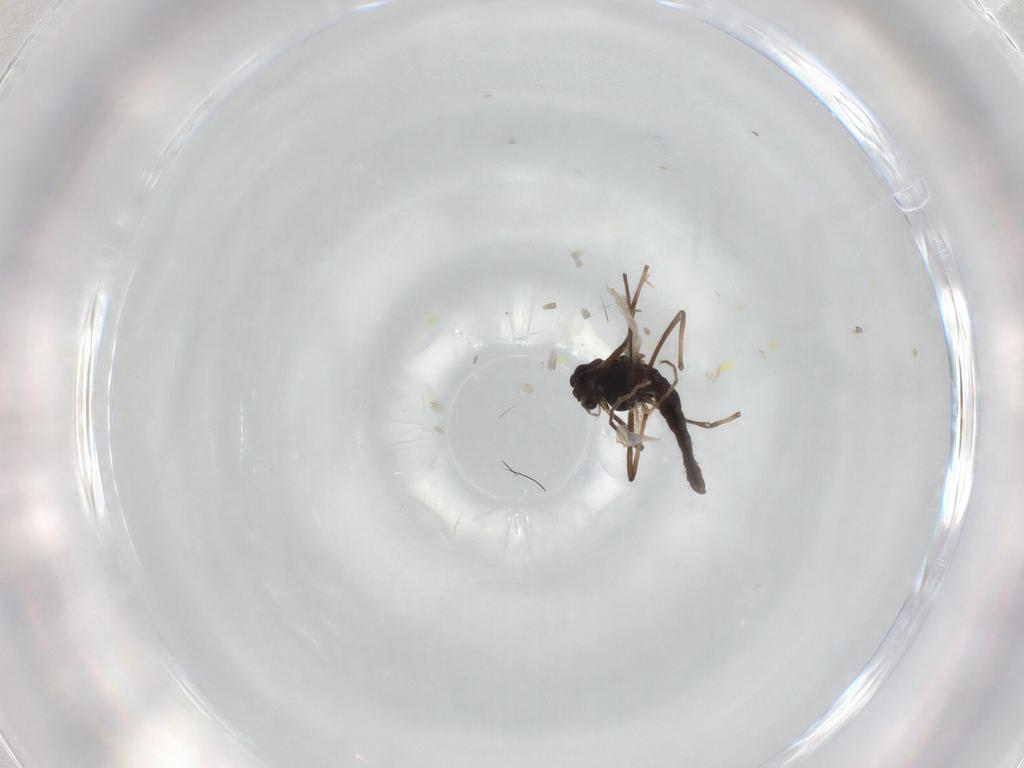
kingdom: Animalia
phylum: Arthropoda
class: Insecta
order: Diptera
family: Chironomidae
